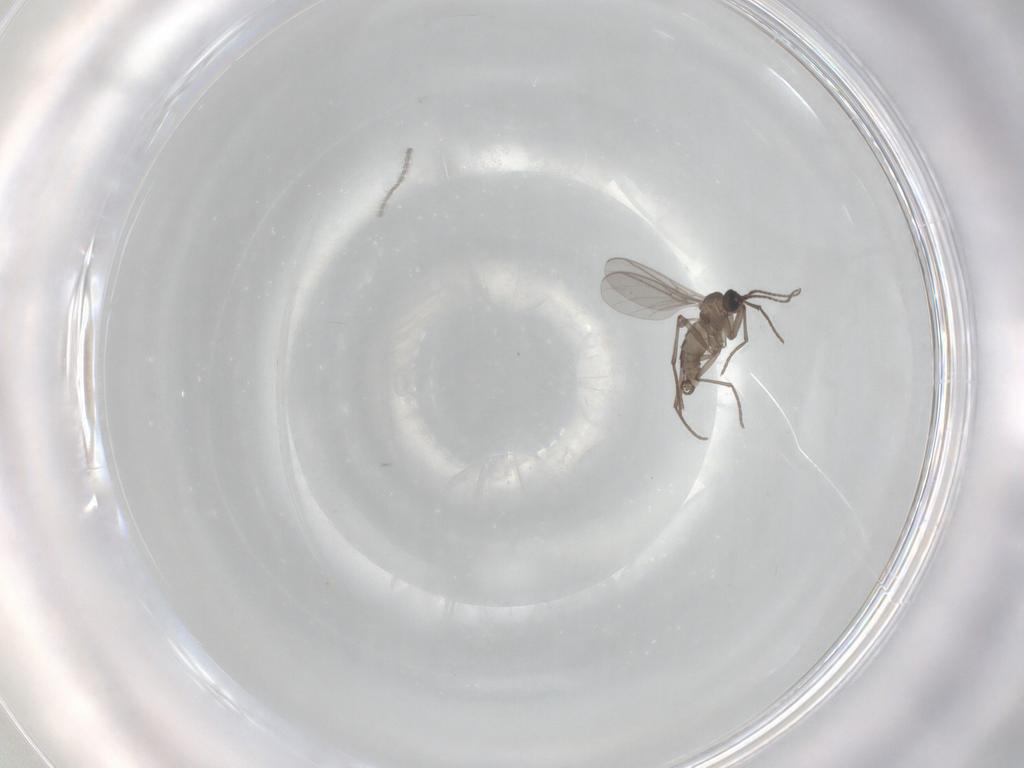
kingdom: Animalia
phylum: Arthropoda
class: Insecta
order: Diptera
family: Sciaridae
